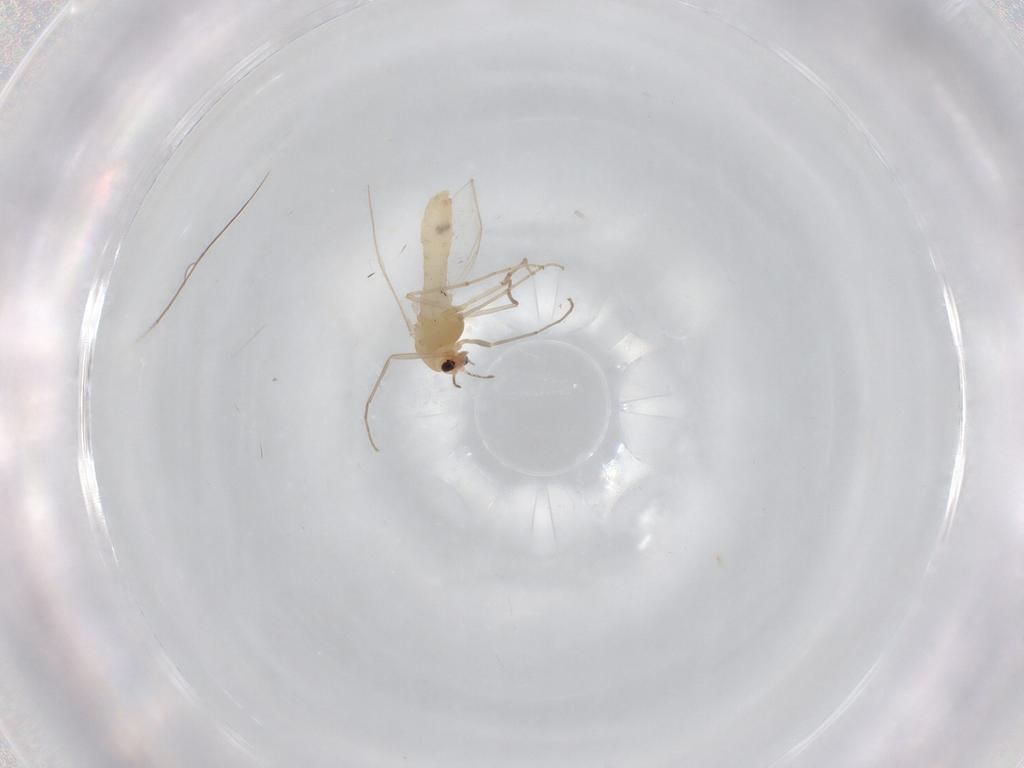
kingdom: Animalia
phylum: Arthropoda
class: Insecta
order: Diptera
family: Chironomidae
